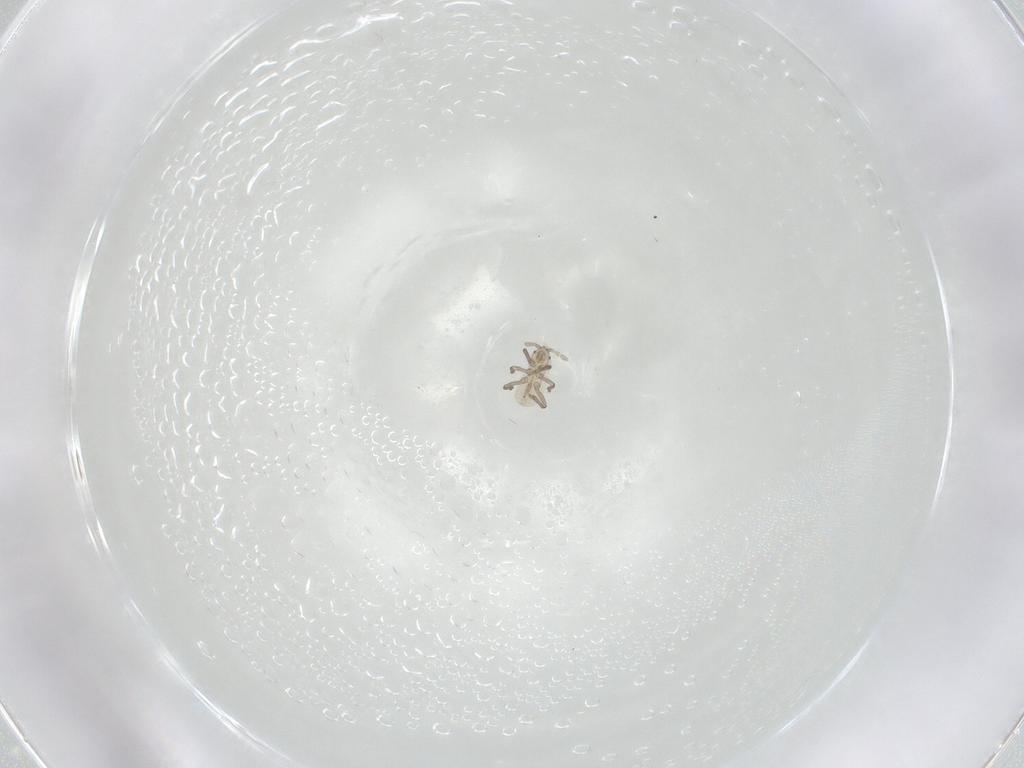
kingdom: Animalia
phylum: Arthropoda
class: Insecta
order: Hemiptera
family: Aphididae
